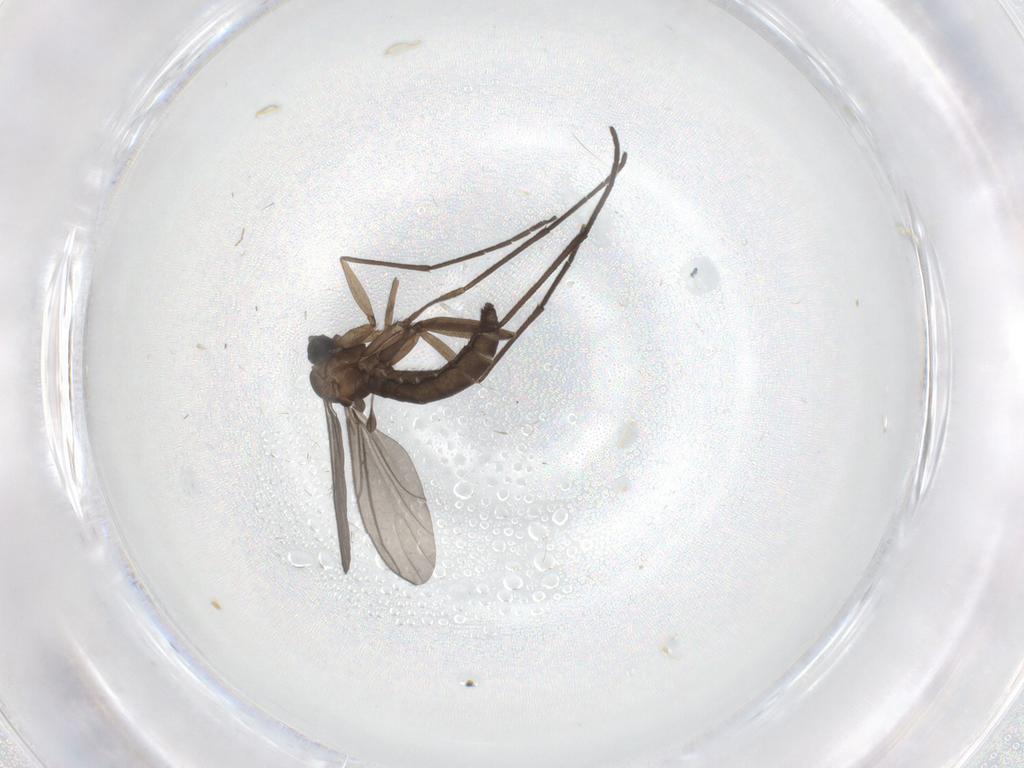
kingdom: Animalia
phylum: Arthropoda
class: Insecta
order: Diptera
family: Chironomidae
